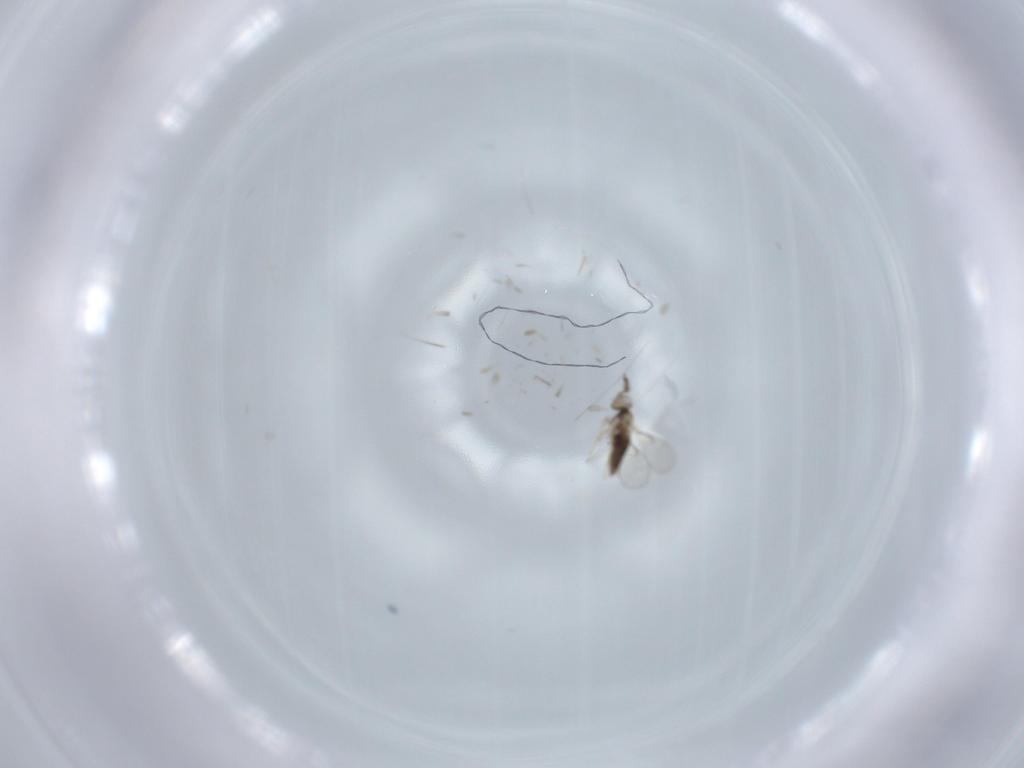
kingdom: Animalia
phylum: Arthropoda
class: Insecta
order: Hymenoptera
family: Trichogrammatidae
